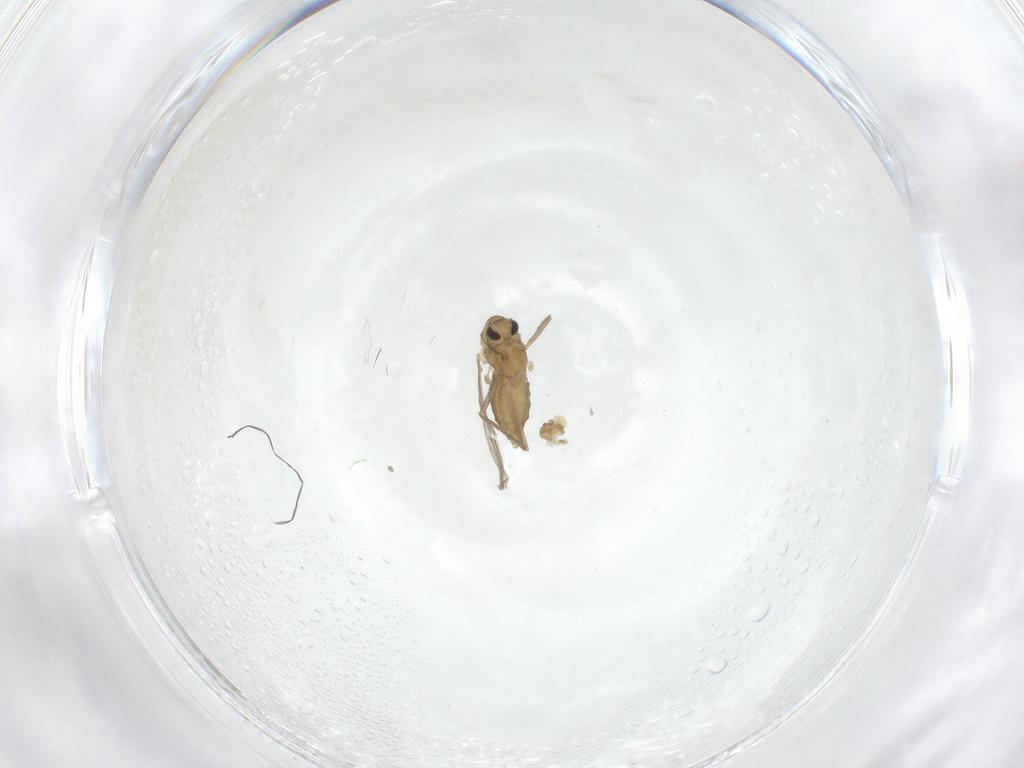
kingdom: Animalia
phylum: Arthropoda
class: Insecta
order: Diptera
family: Chironomidae
